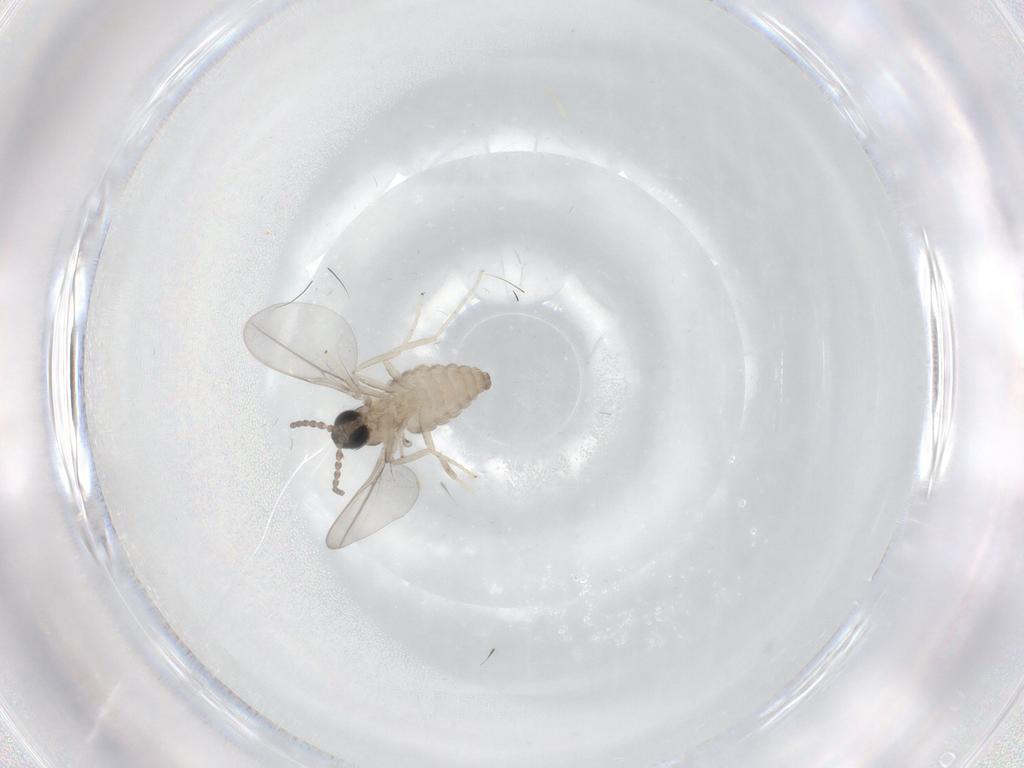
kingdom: Animalia
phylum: Arthropoda
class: Insecta
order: Diptera
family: Cecidomyiidae
